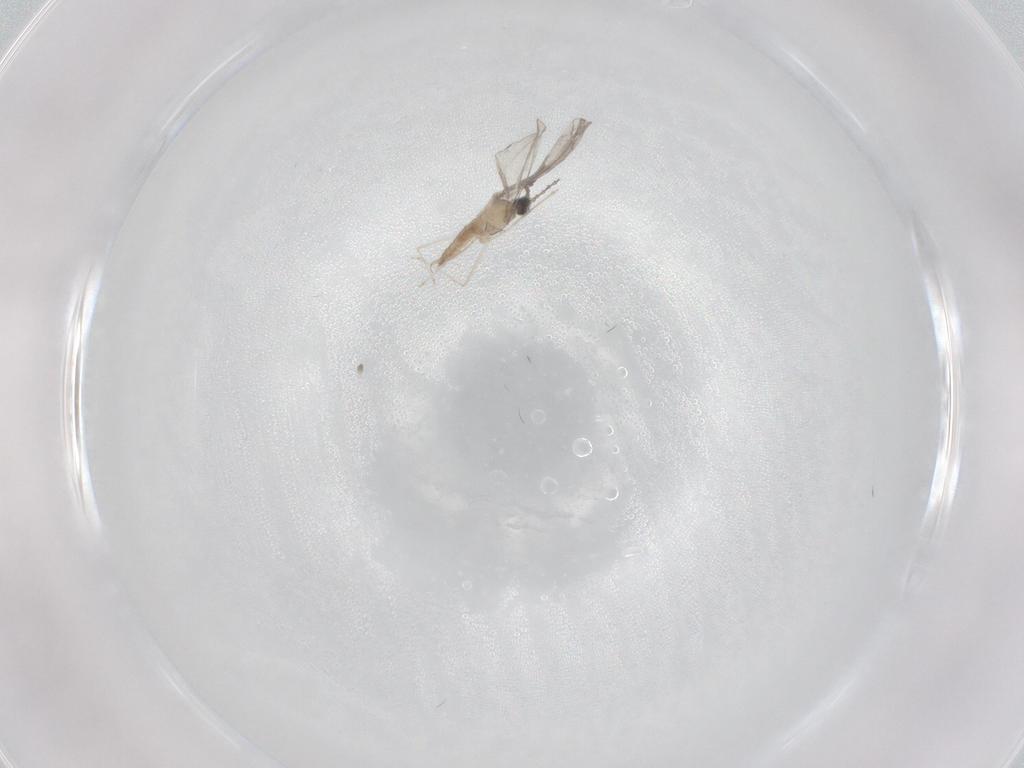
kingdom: Animalia
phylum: Arthropoda
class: Insecta
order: Diptera
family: Cecidomyiidae
